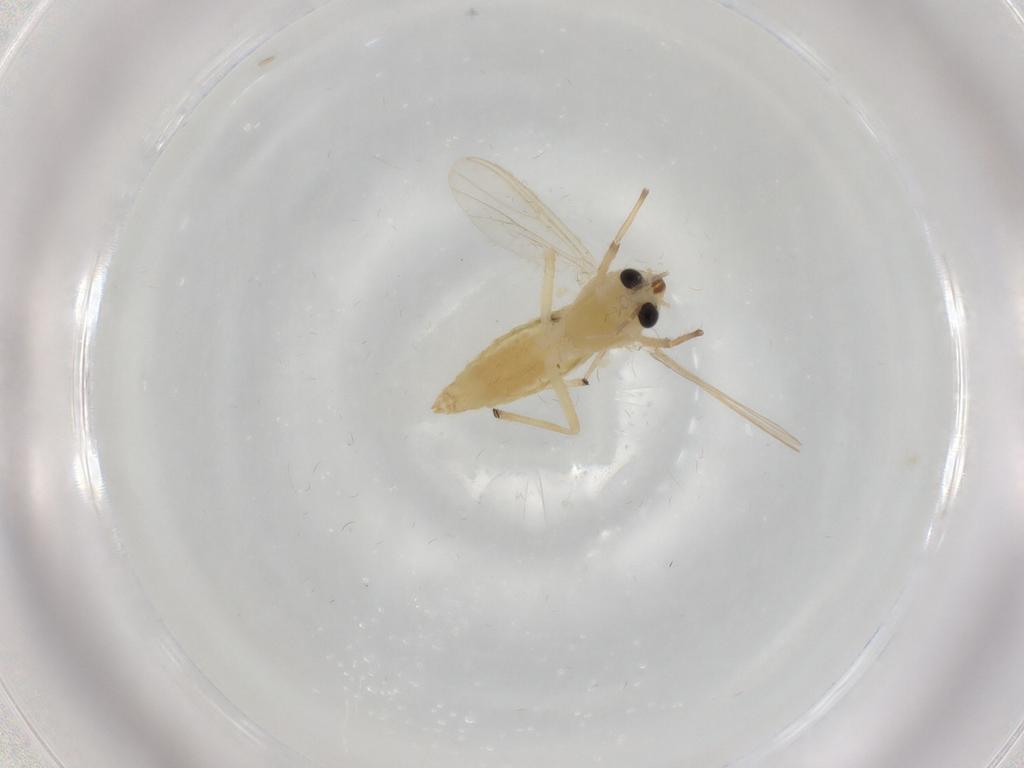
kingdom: Animalia
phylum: Arthropoda
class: Insecta
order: Diptera
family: Chironomidae
